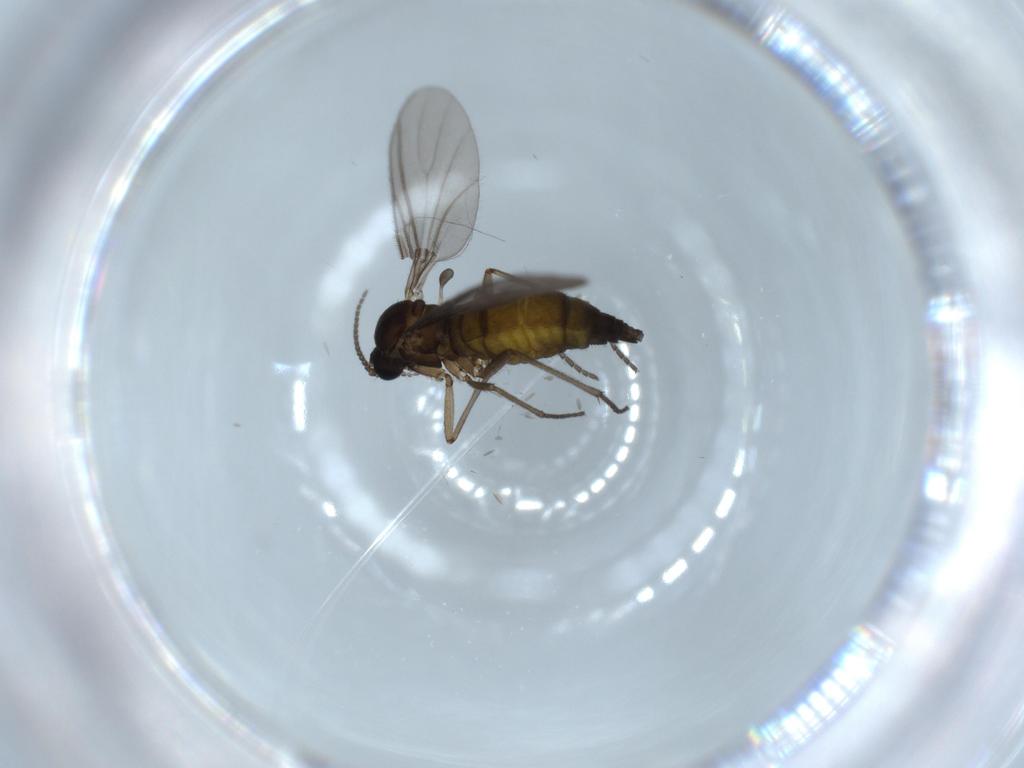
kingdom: Animalia
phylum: Arthropoda
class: Insecta
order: Diptera
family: Sciaridae
